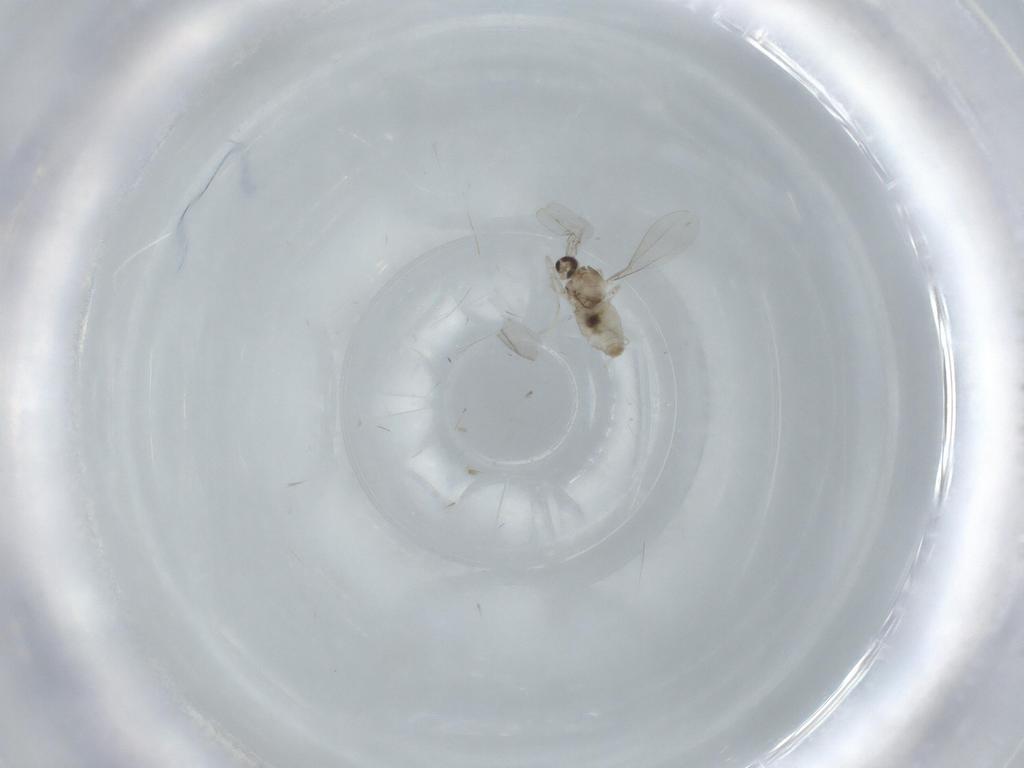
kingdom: Animalia
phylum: Arthropoda
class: Insecta
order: Diptera
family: Cecidomyiidae
